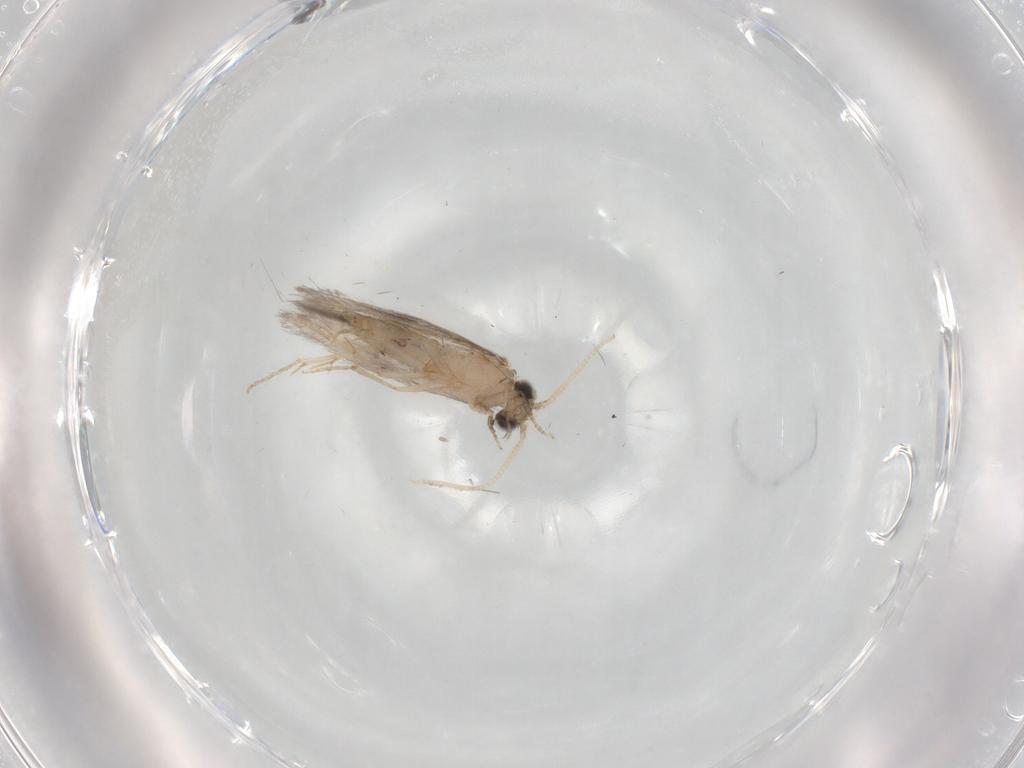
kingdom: Animalia
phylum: Arthropoda
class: Insecta
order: Trichoptera
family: Hydroptilidae
